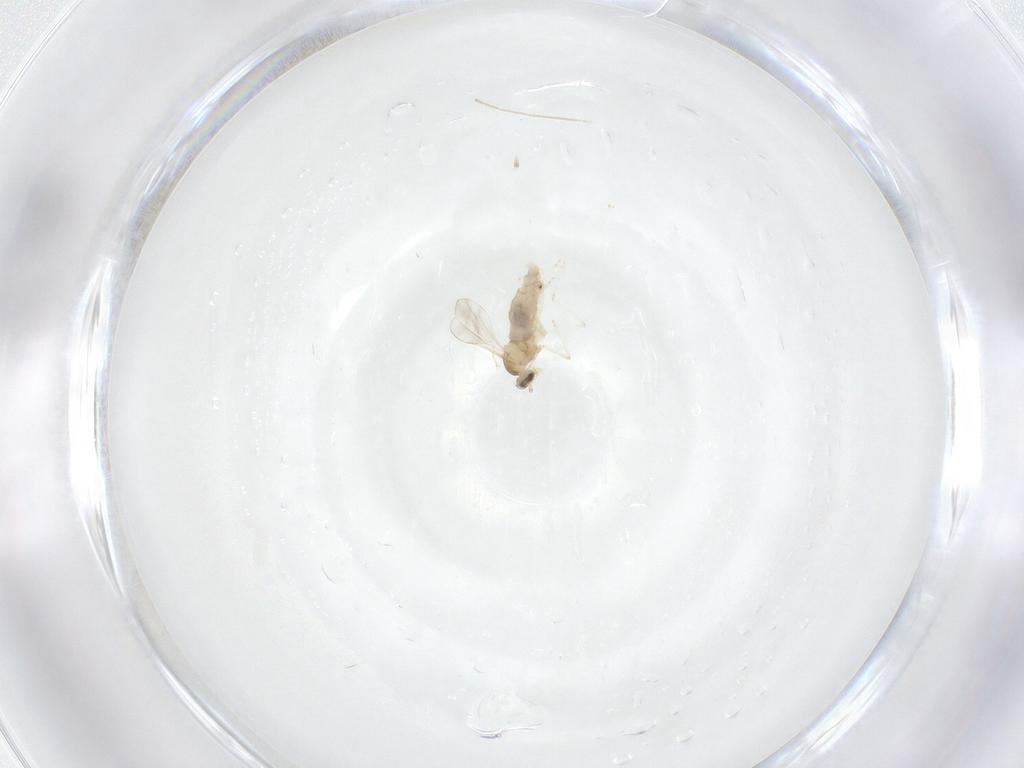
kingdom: Animalia
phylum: Arthropoda
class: Insecta
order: Diptera
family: Cecidomyiidae
